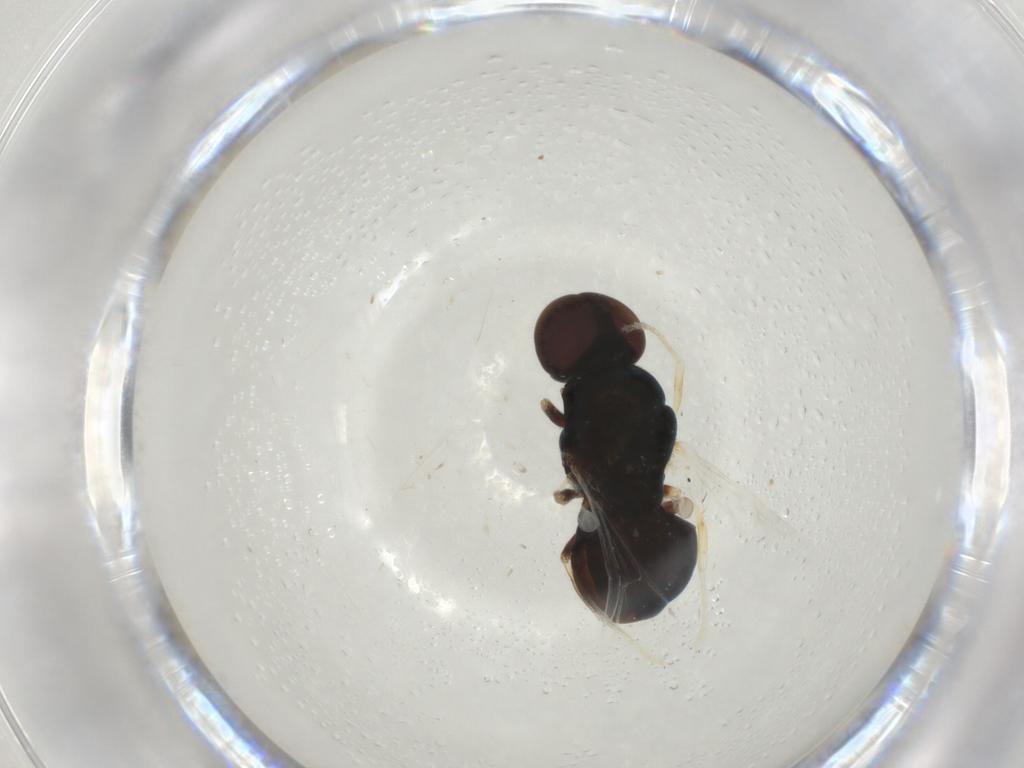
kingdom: Animalia
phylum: Arthropoda
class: Insecta
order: Diptera
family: Stratiomyidae
